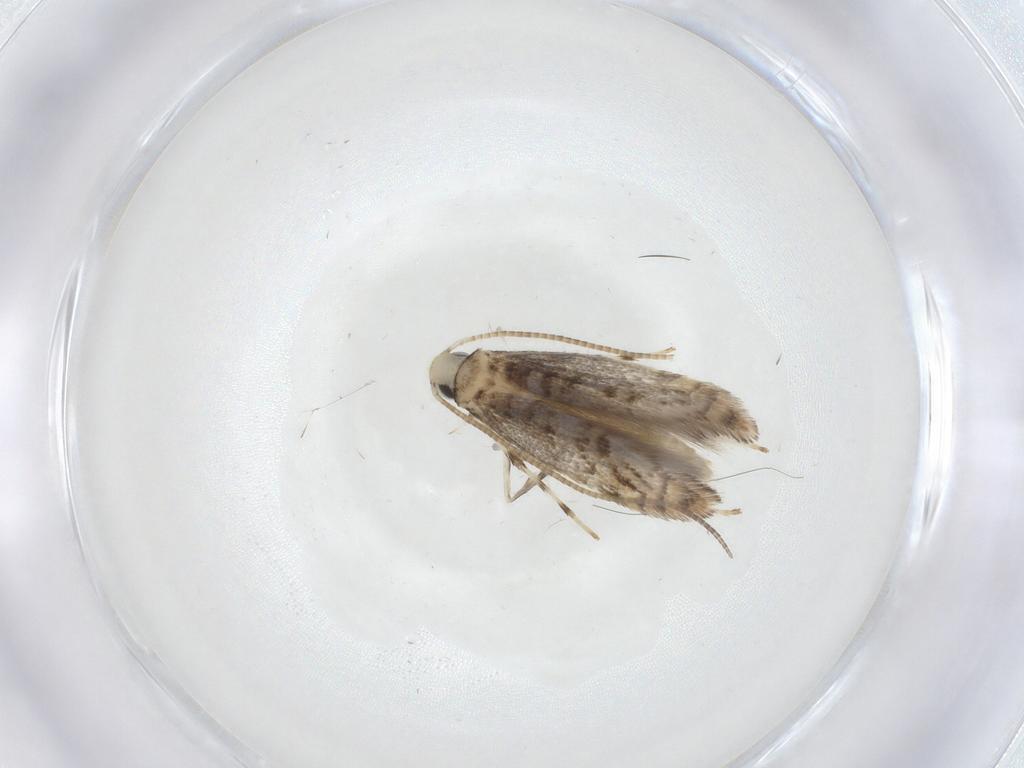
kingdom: Animalia
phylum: Arthropoda
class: Insecta
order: Lepidoptera
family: Gracillariidae
